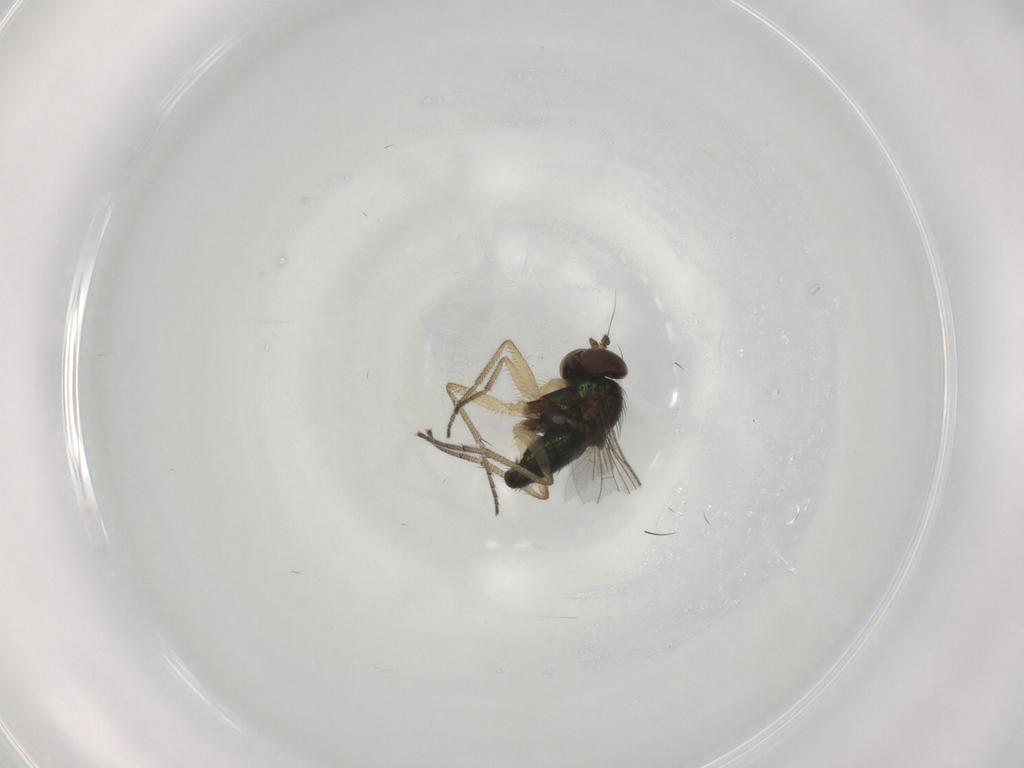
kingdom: Animalia
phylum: Arthropoda
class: Insecta
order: Diptera
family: Dolichopodidae
